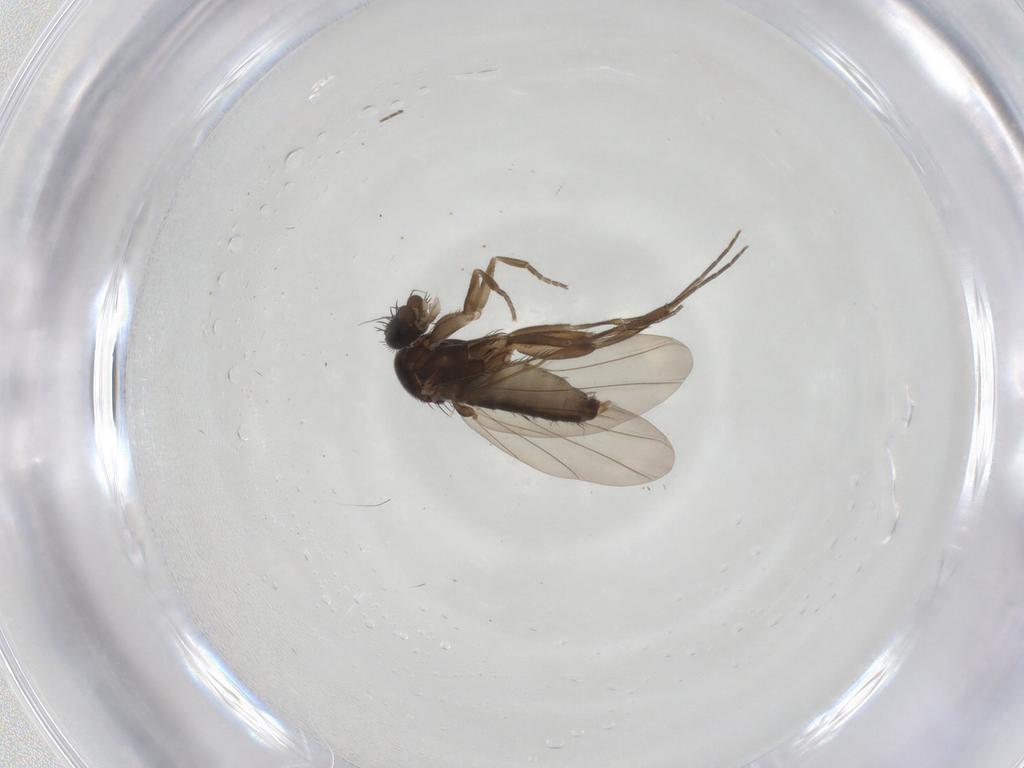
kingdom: Animalia
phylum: Arthropoda
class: Insecta
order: Diptera
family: Phoridae
